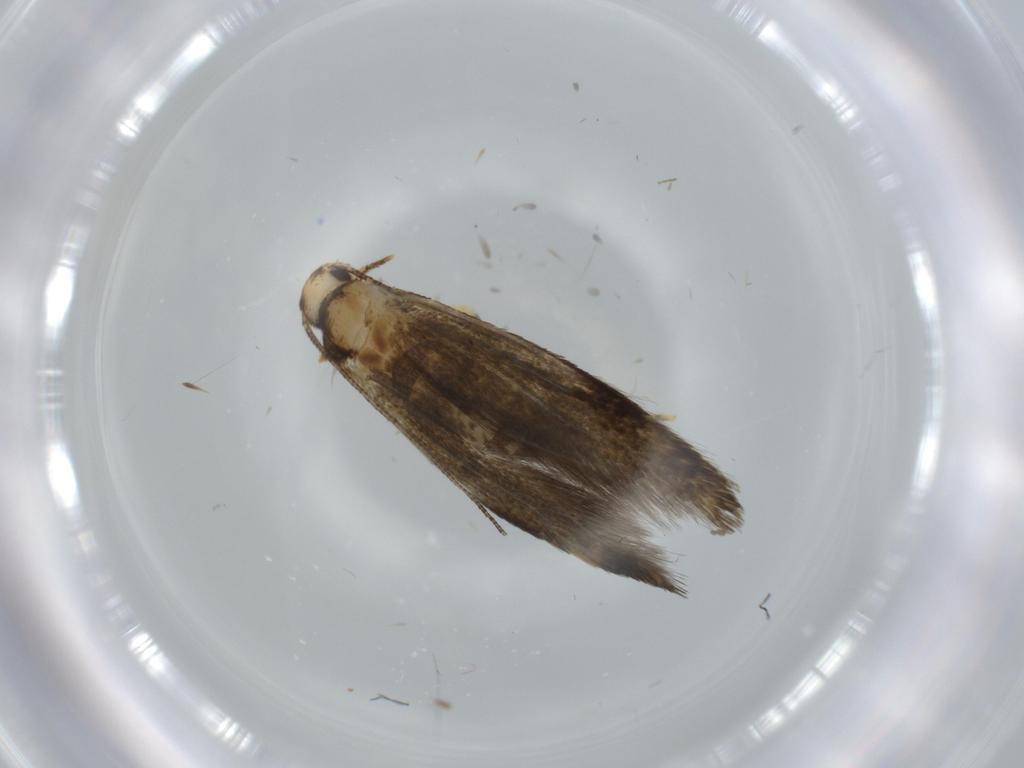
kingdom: Animalia
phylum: Arthropoda
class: Insecta
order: Lepidoptera
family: Tineidae
